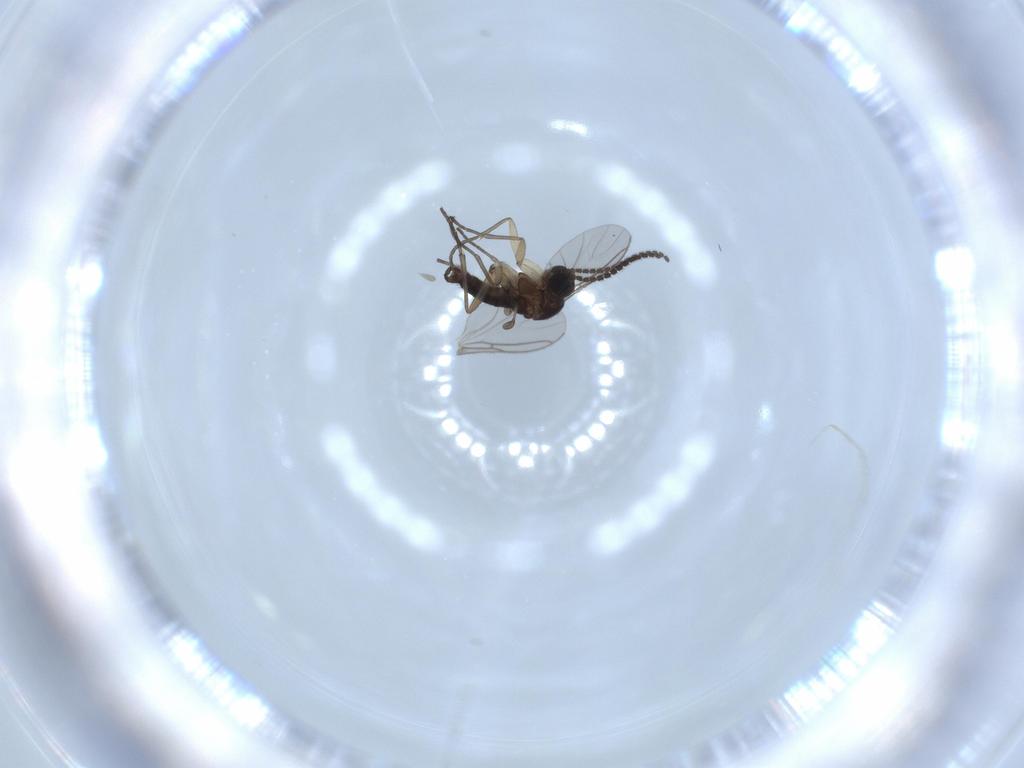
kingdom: Animalia
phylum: Arthropoda
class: Insecta
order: Diptera
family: Sciaridae
